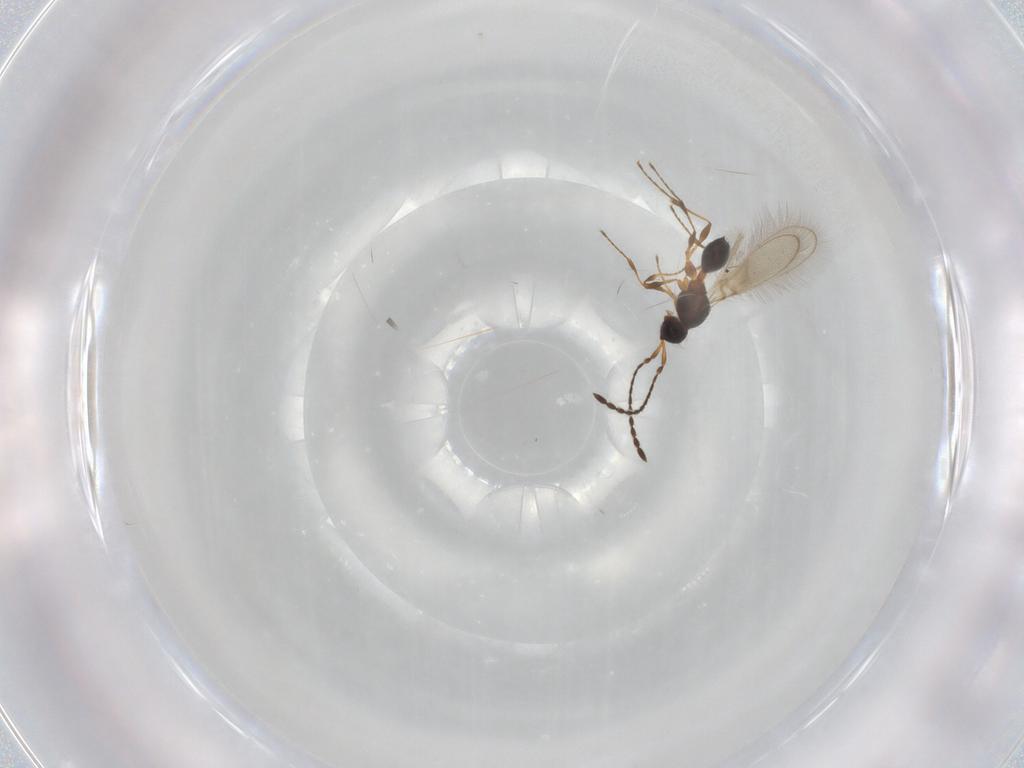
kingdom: Animalia
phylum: Arthropoda
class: Insecta
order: Hymenoptera
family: Diapriidae
